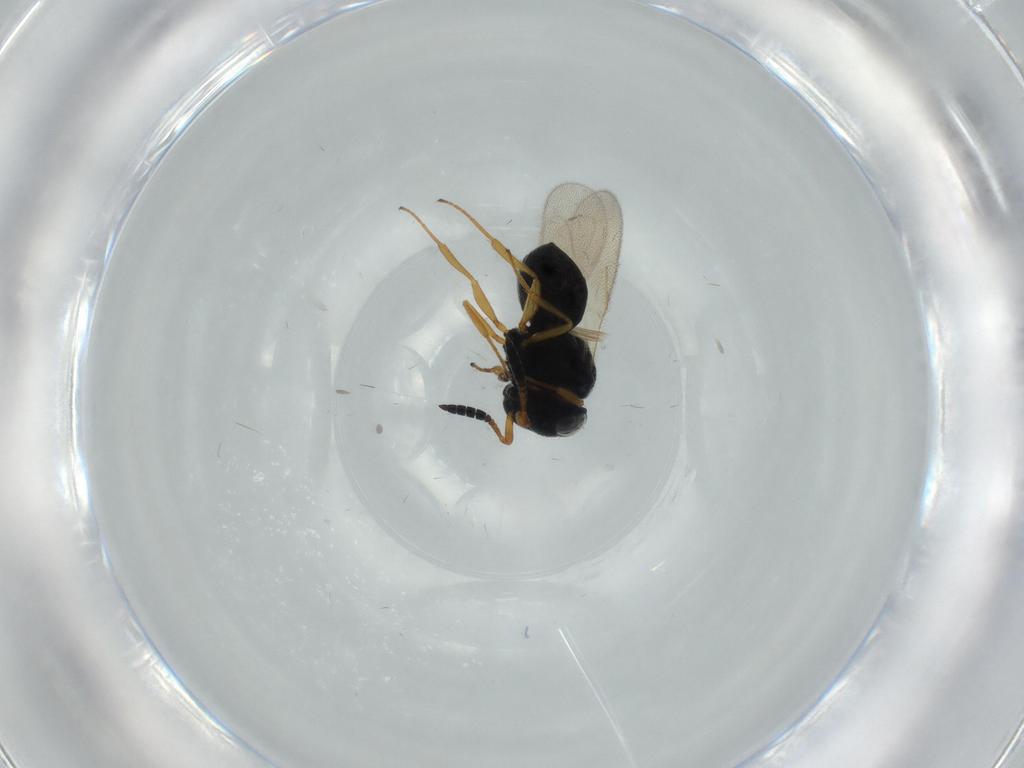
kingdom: Animalia
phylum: Arthropoda
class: Insecta
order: Hymenoptera
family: Scelionidae
